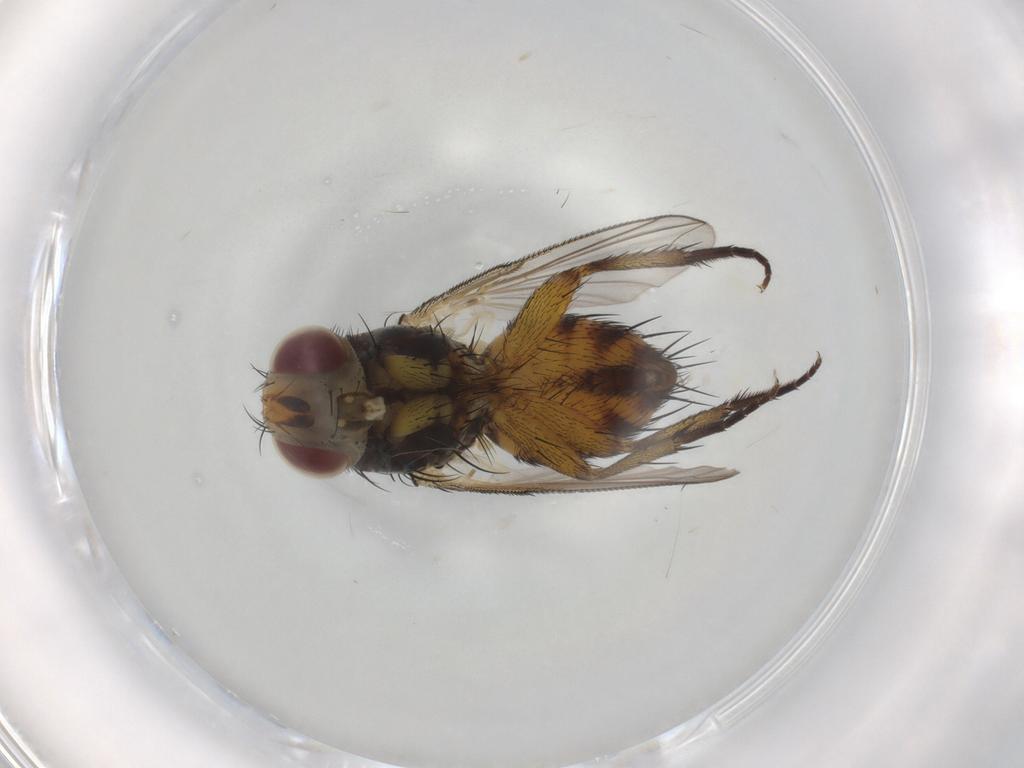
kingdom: Animalia
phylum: Arthropoda
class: Insecta
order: Diptera
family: Tachinidae
